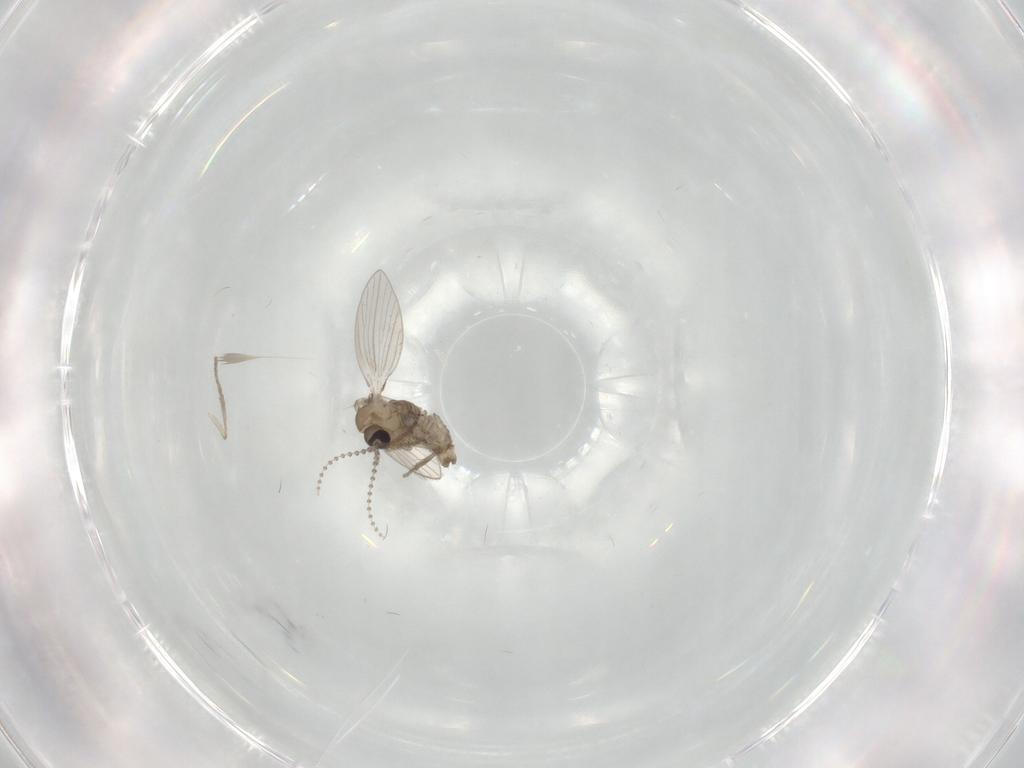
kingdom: Animalia
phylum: Arthropoda
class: Insecta
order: Diptera
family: Psychodidae
